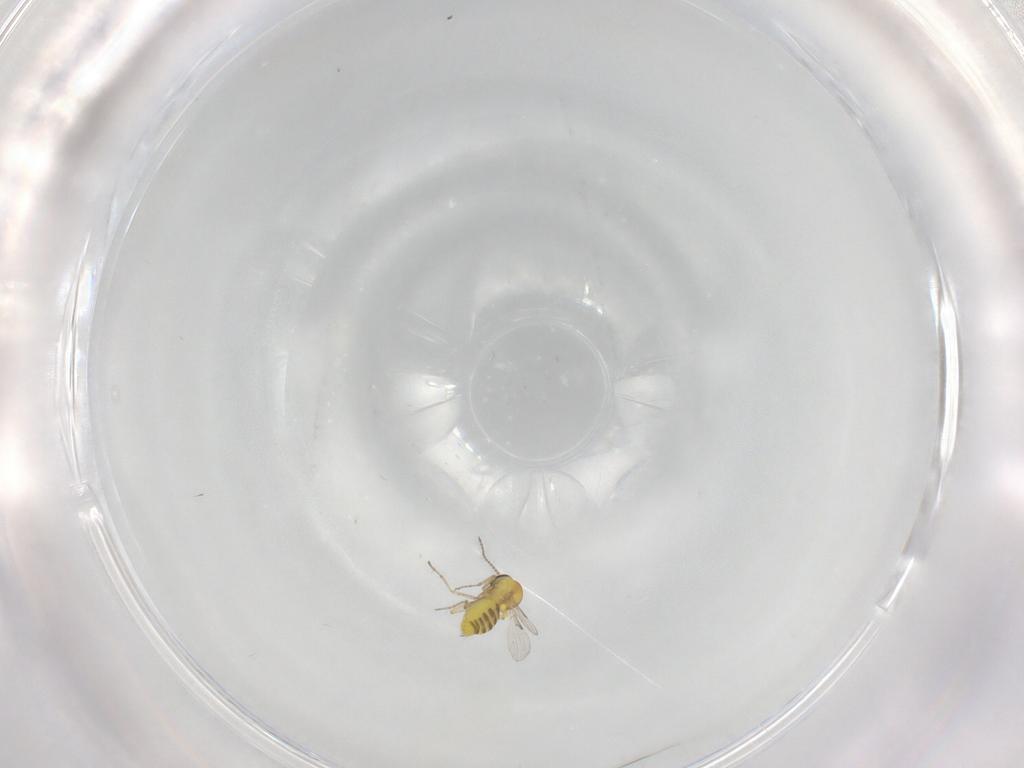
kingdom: Animalia
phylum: Arthropoda
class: Insecta
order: Diptera
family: Ceratopogonidae
